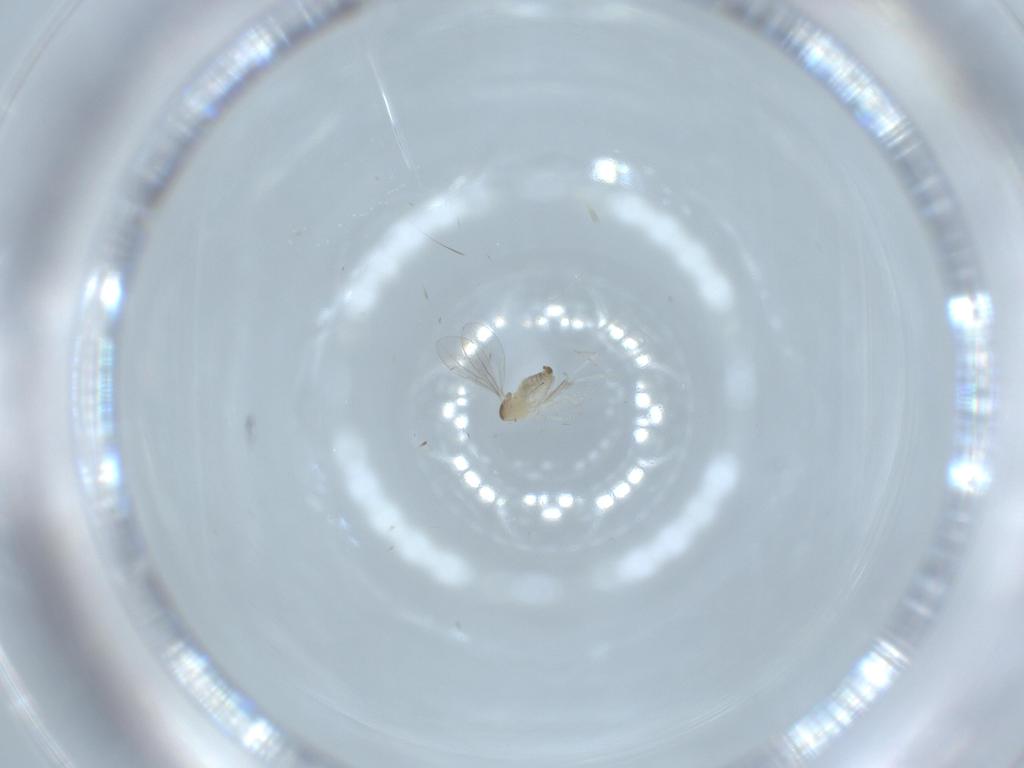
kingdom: Animalia
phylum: Arthropoda
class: Insecta
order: Diptera
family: Cecidomyiidae
